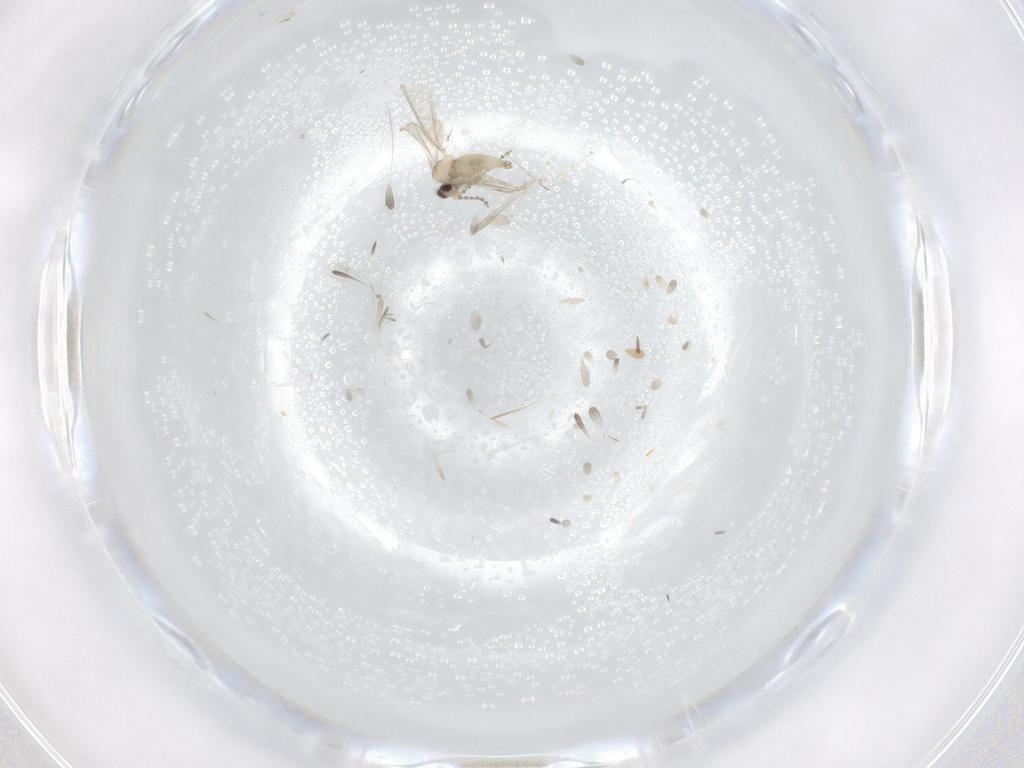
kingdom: Animalia
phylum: Arthropoda
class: Insecta
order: Diptera
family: Cecidomyiidae
